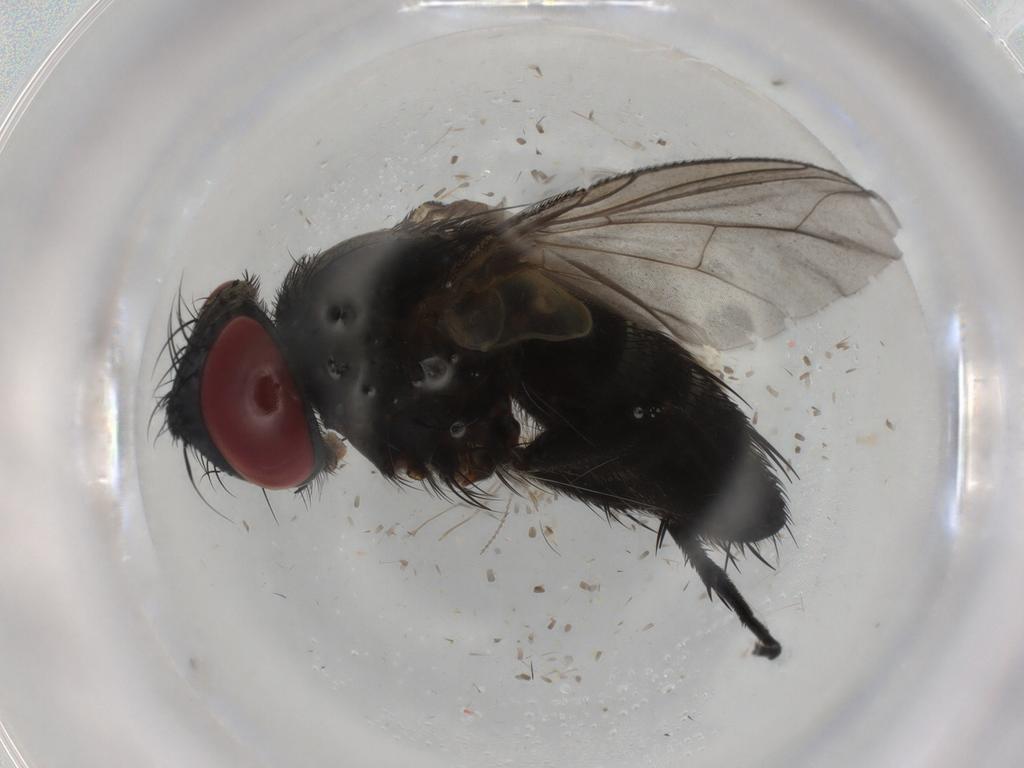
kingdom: Animalia
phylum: Arthropoda
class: Insecta
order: Diptera
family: Sarcophagidae
